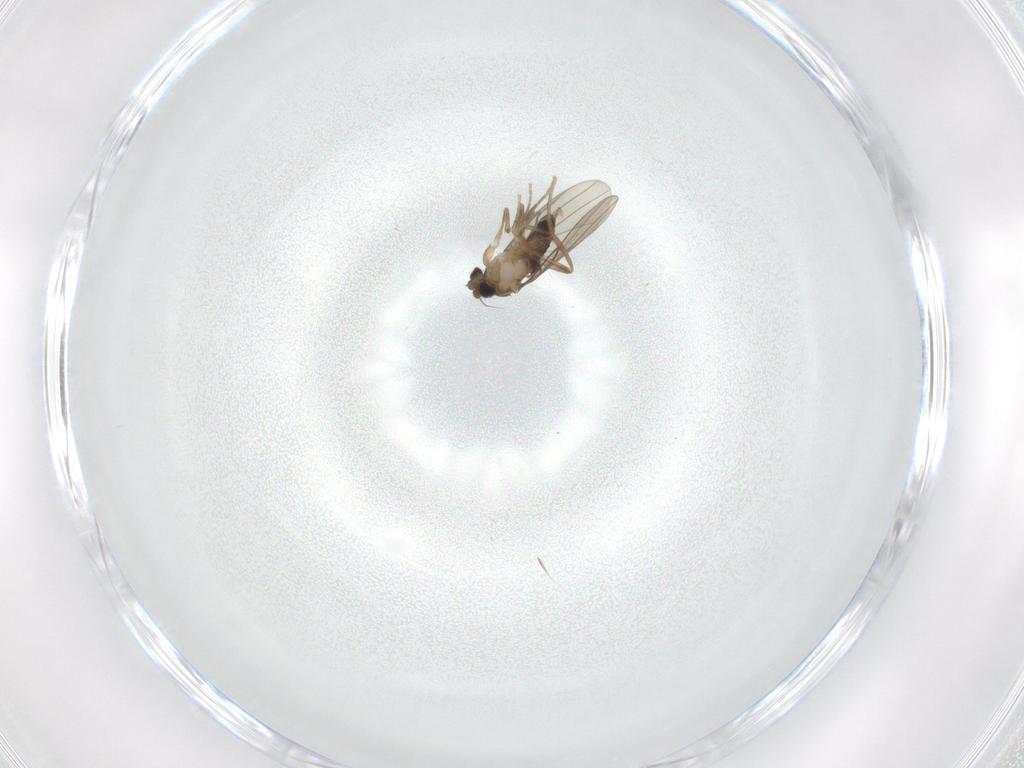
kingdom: Animalia
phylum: Arthropoda
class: Insecta
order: Diptera
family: Phoridae
